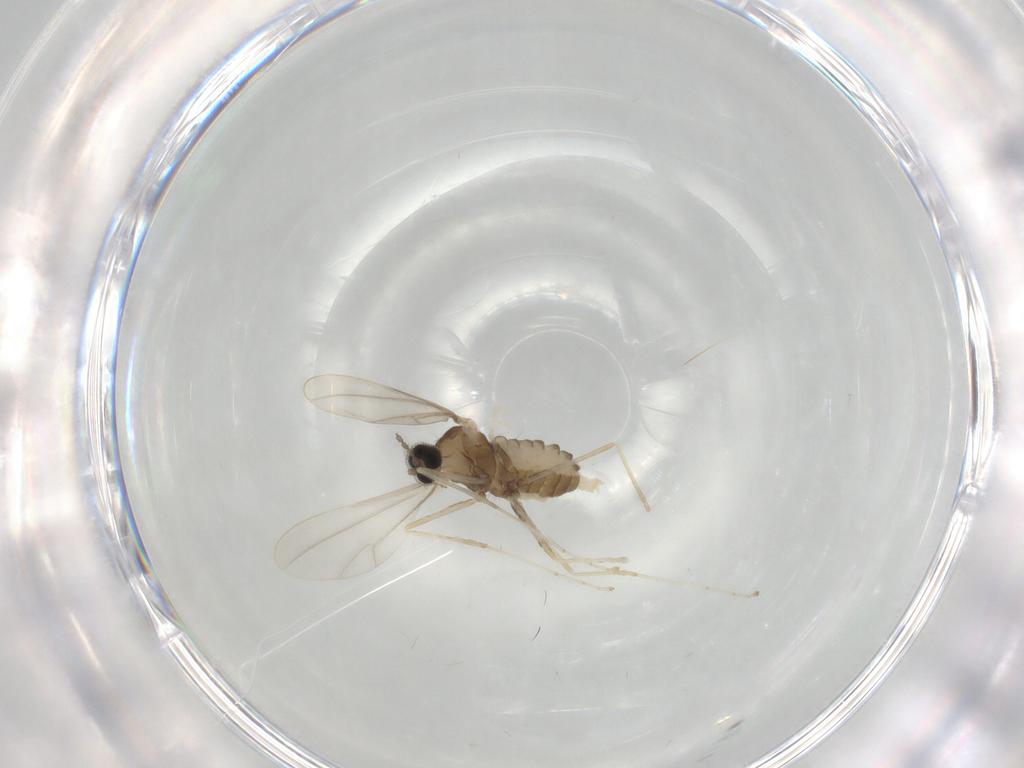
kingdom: Animalia
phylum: Arthropoda
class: Insecta
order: Diptera
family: Cecidomyiidae
